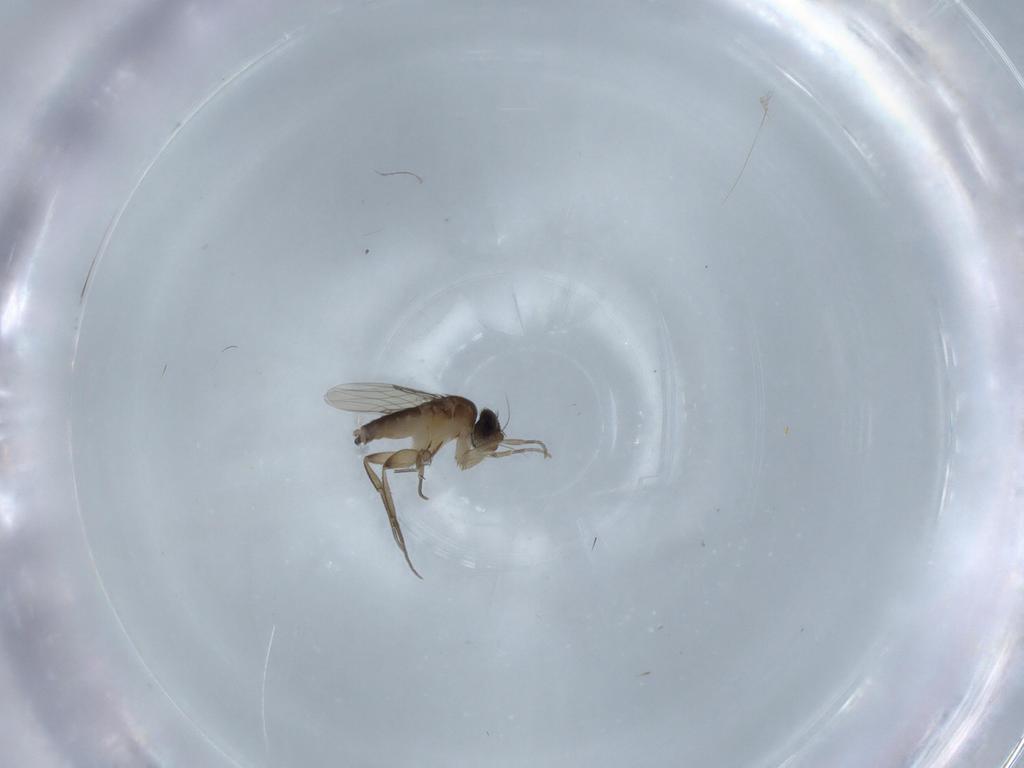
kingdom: Animalia
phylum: Arthropoda
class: Insecta
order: Diptera
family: Cecidomyiidae
